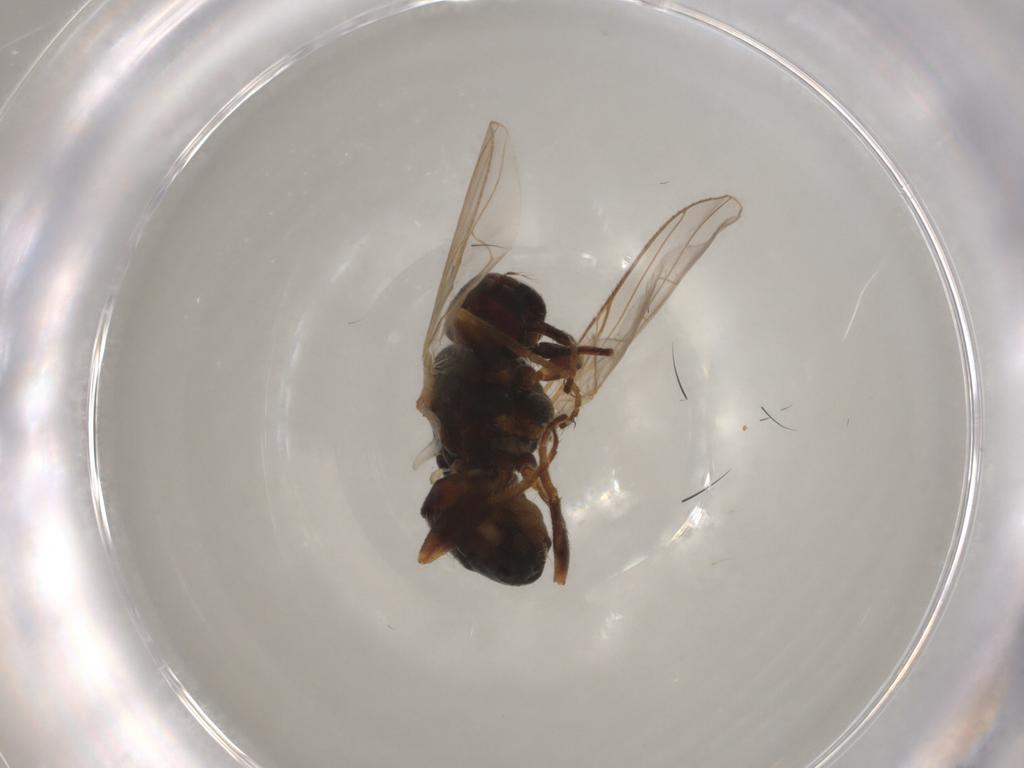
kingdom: Animalia
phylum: Arthropoda
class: Insecta
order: Diptera
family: Muscidae
